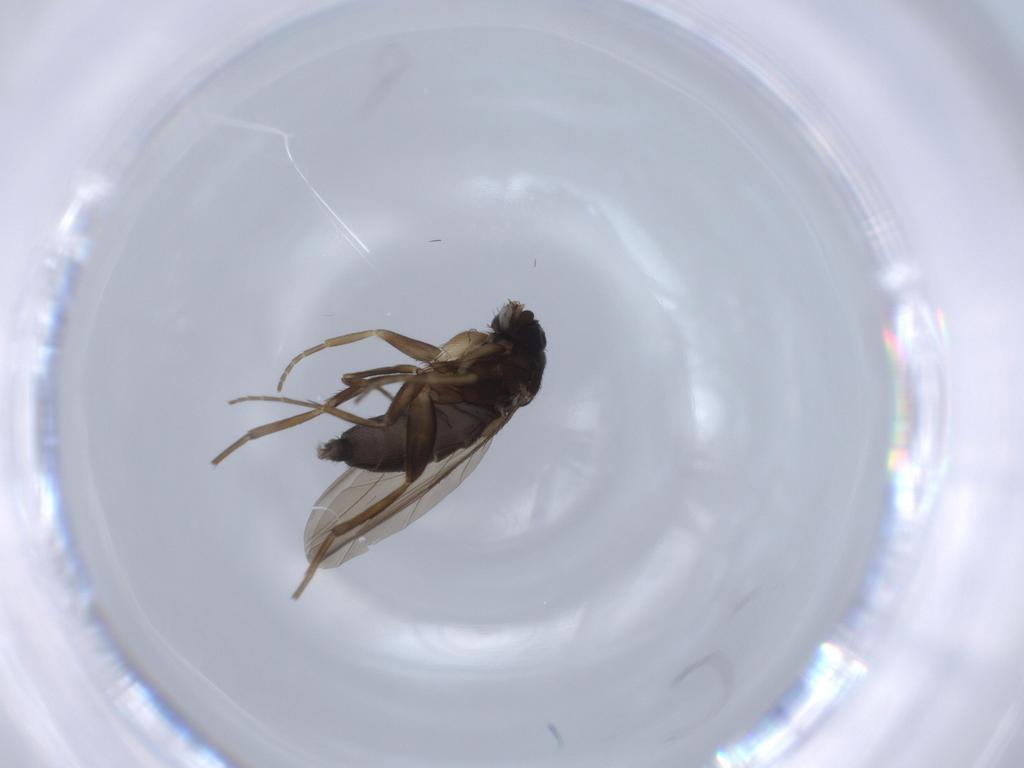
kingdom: Animalia
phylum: Arthropoda
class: Insecta
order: Diptera
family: Phoridae
